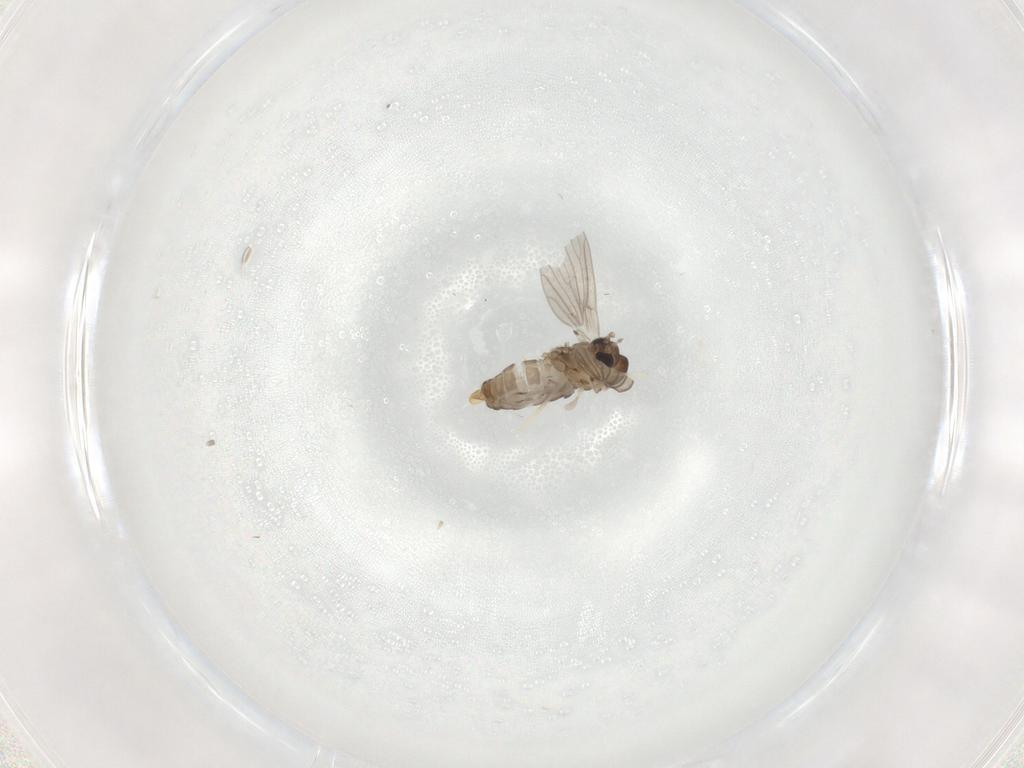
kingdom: Animalia
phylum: Arthropoda
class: Insecta
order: Diptera
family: Cecidomyiidae
